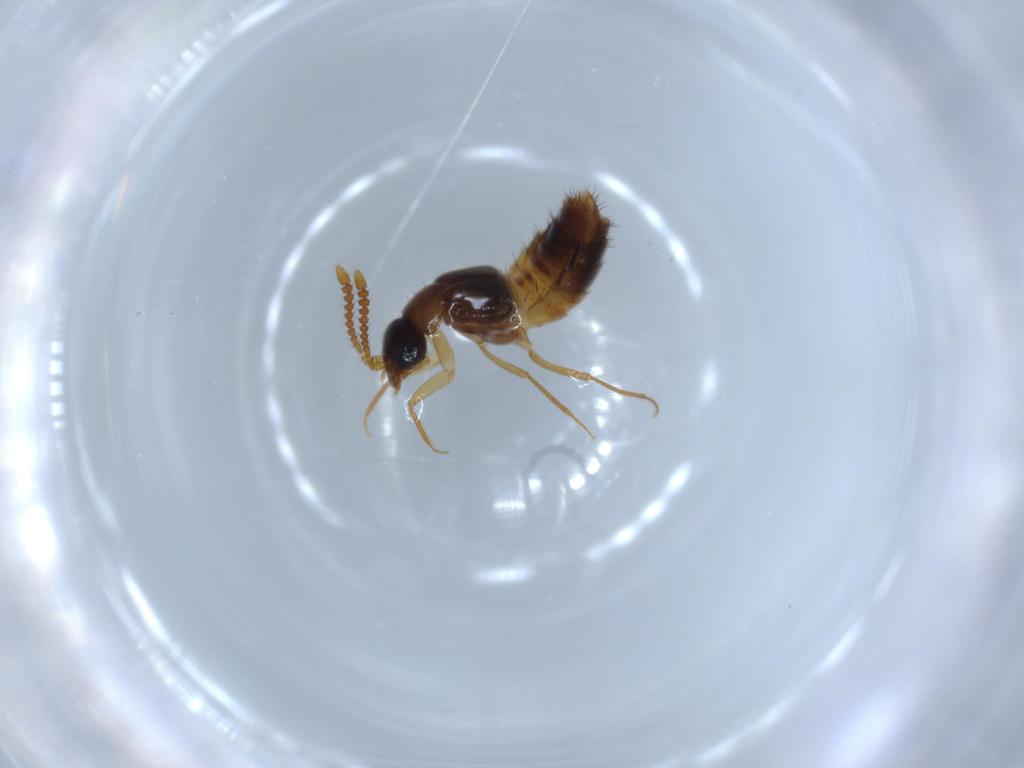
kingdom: Animalia
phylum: Arthropoda
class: Insecta
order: Coleoptera
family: Staphylinidae
